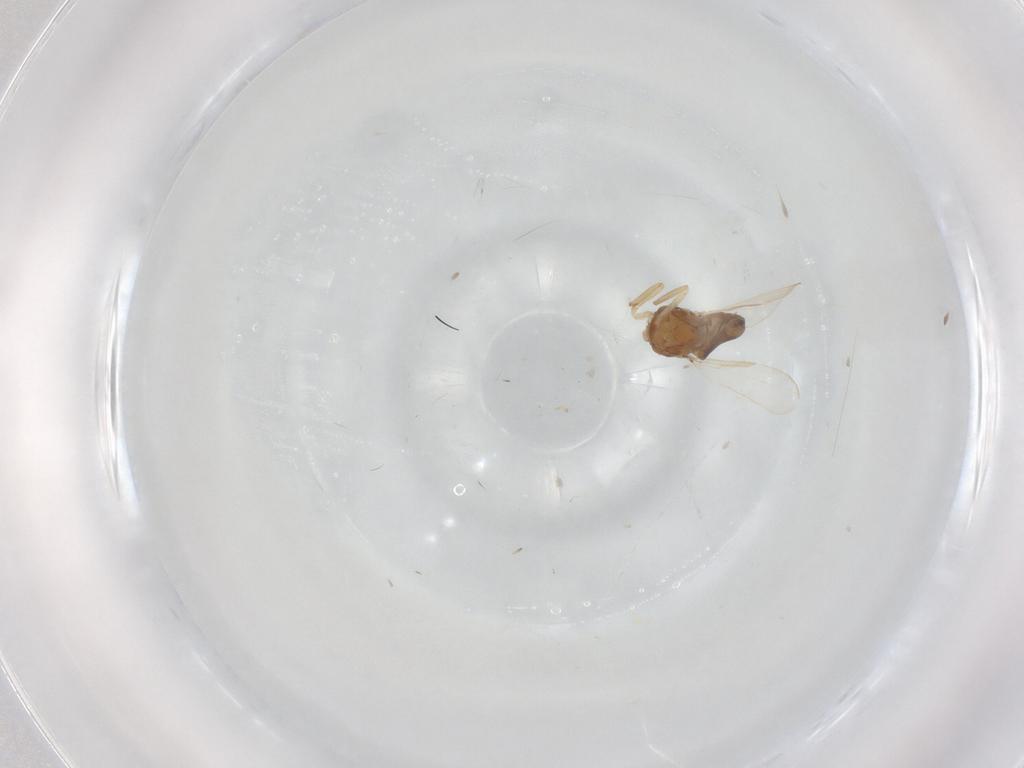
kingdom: Animalia
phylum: Arthropoda
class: Insecta
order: Diptera
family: Ceratopogonidae
